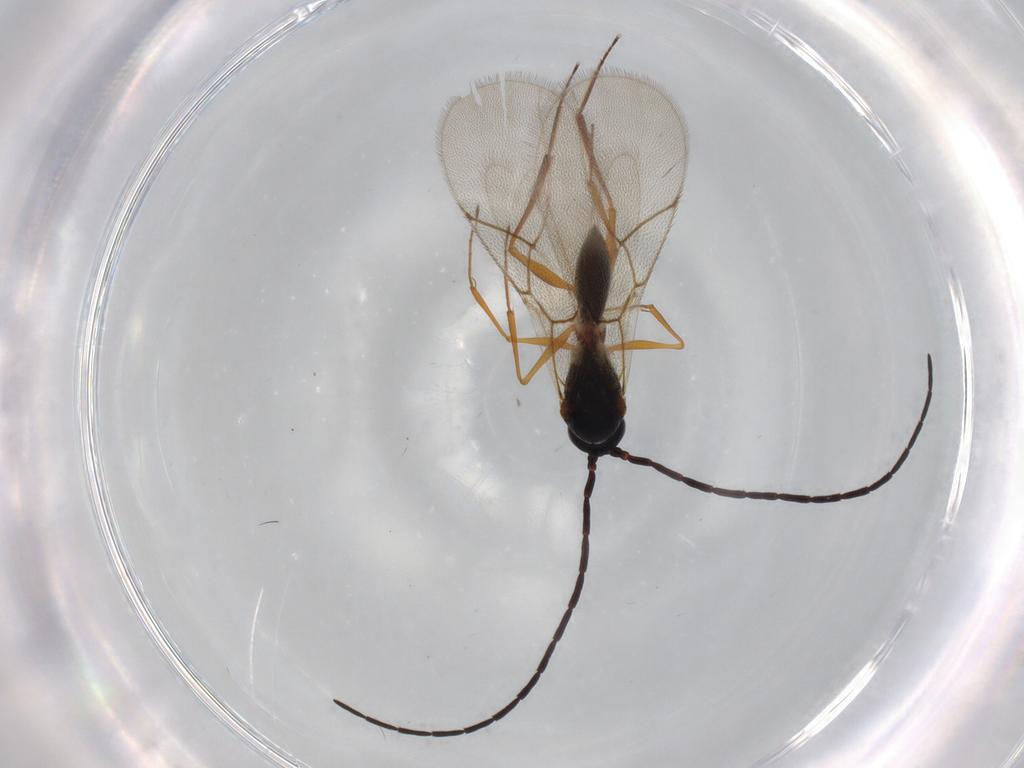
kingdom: Animalia
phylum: Arthropoda
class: Insecta
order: Hymenoptera
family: Figitidae
